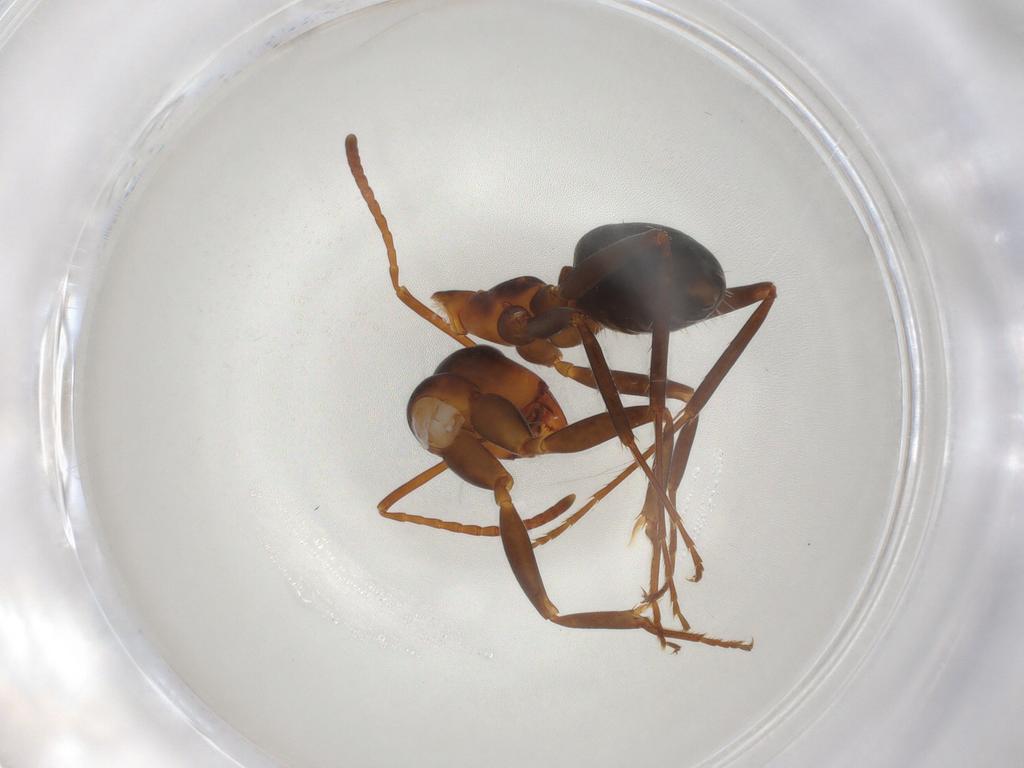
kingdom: Animalia
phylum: Arthropoda
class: Insecta
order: Hymenoptera
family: Formicidae
